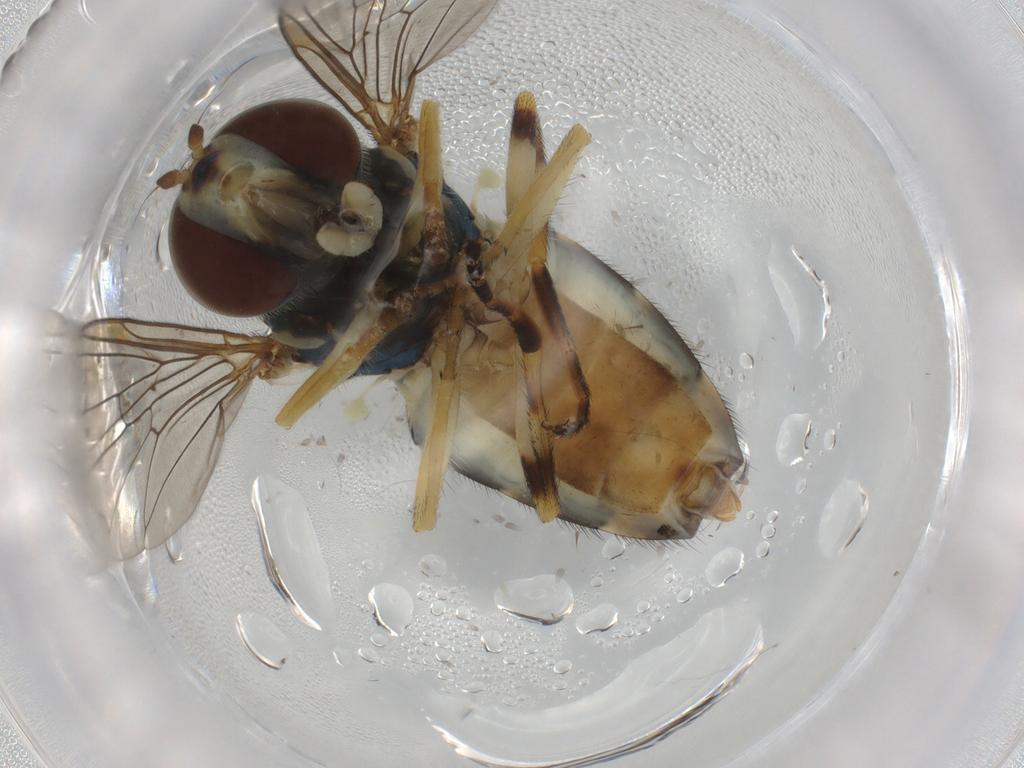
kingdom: Animalia
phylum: Arthropoda
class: Insecta
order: Diptera
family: Syrphidae
